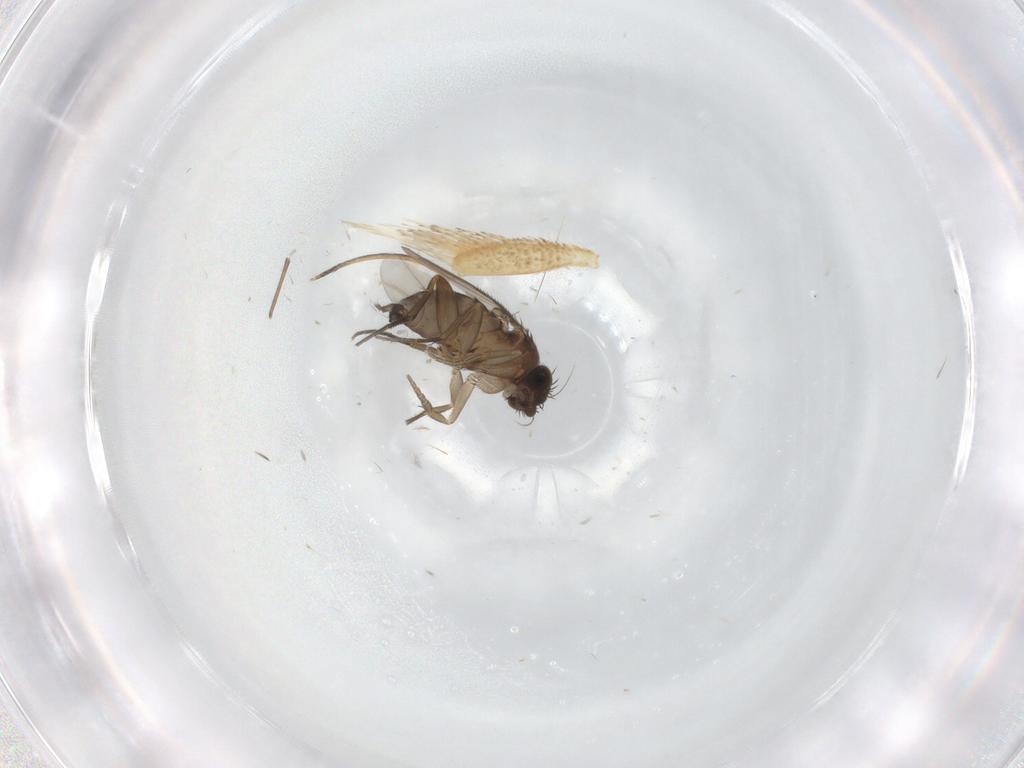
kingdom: Animalia
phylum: Arthropoda
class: Insecta
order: Diptera
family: Phoridae
